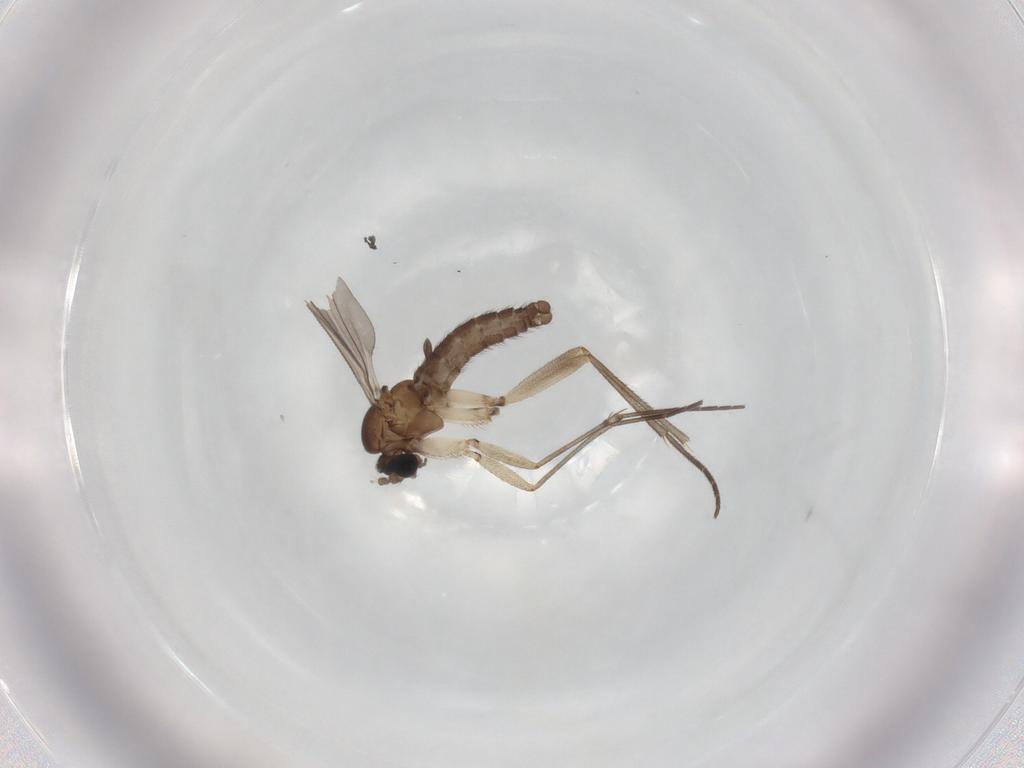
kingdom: Animalia
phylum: Arthropoda
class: Insecta
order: Diptera
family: Sciaridae
